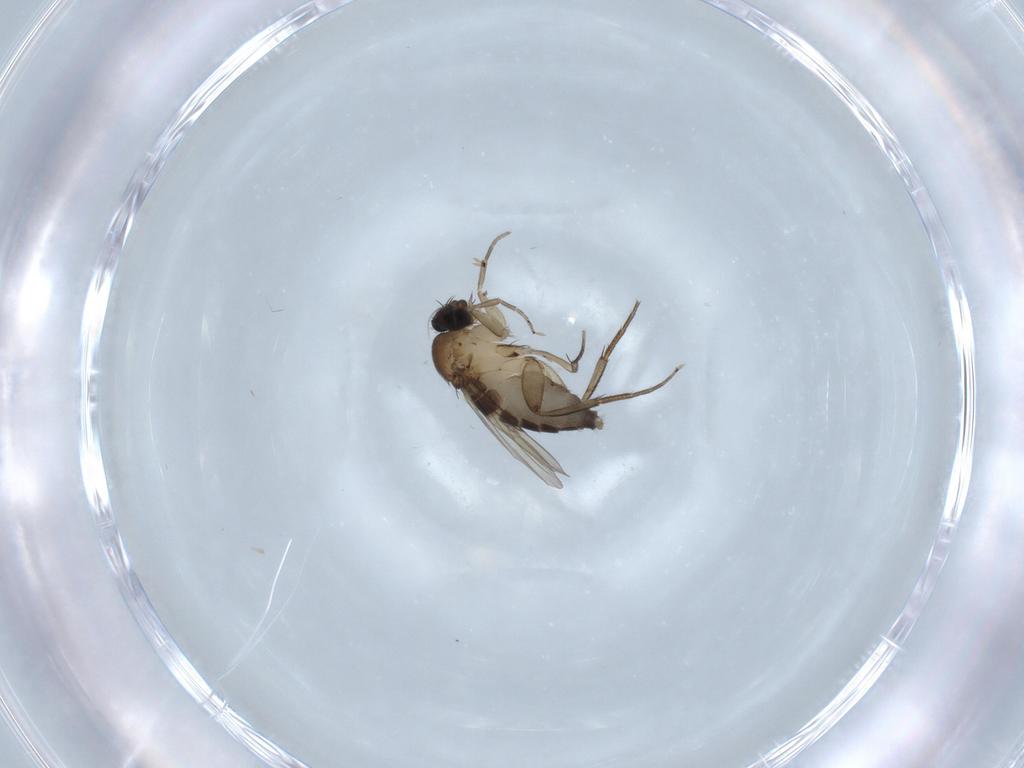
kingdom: Animalia
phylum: Arthropoda
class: Insecta
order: Diptera
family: Phoridae
